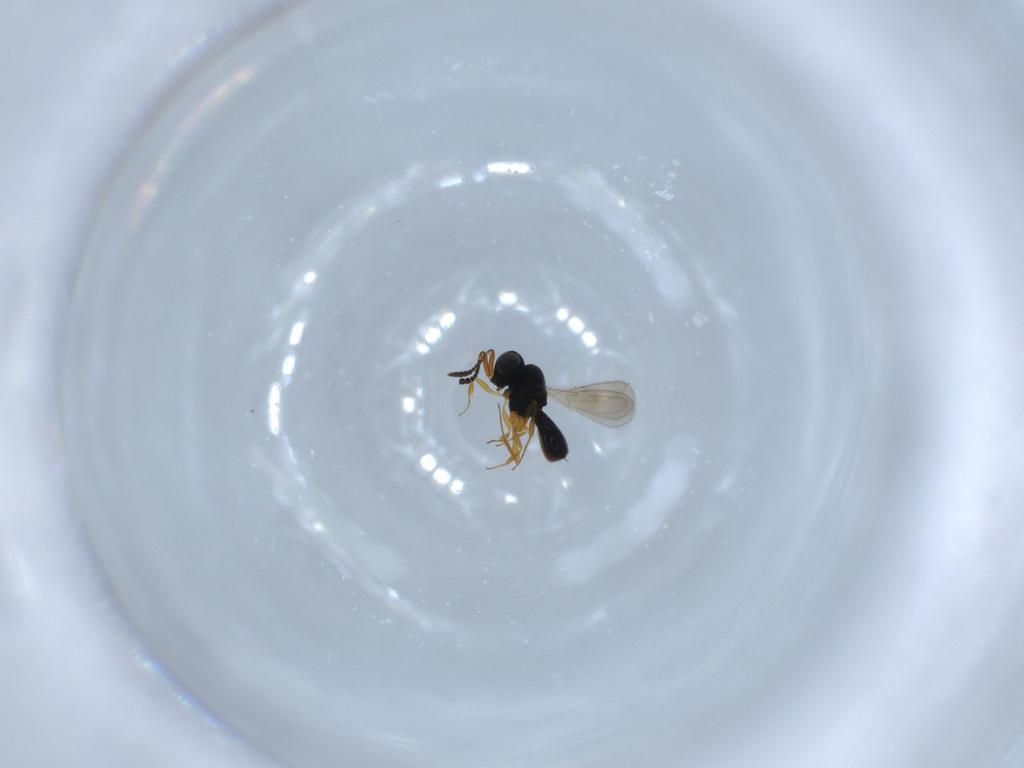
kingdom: Animalia
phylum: Arthropoda
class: Insecta
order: Hymenoptera
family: Scelionidae
